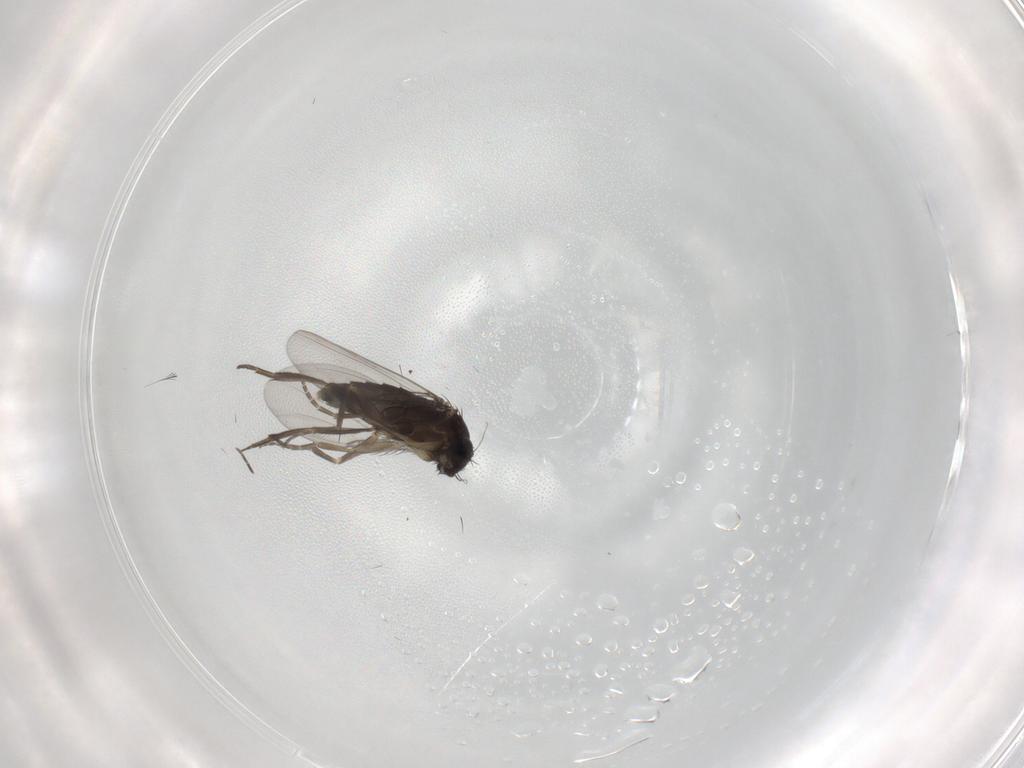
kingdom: Animalia
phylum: Arthropoda
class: Insecta
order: Diptera
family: Phoridae
